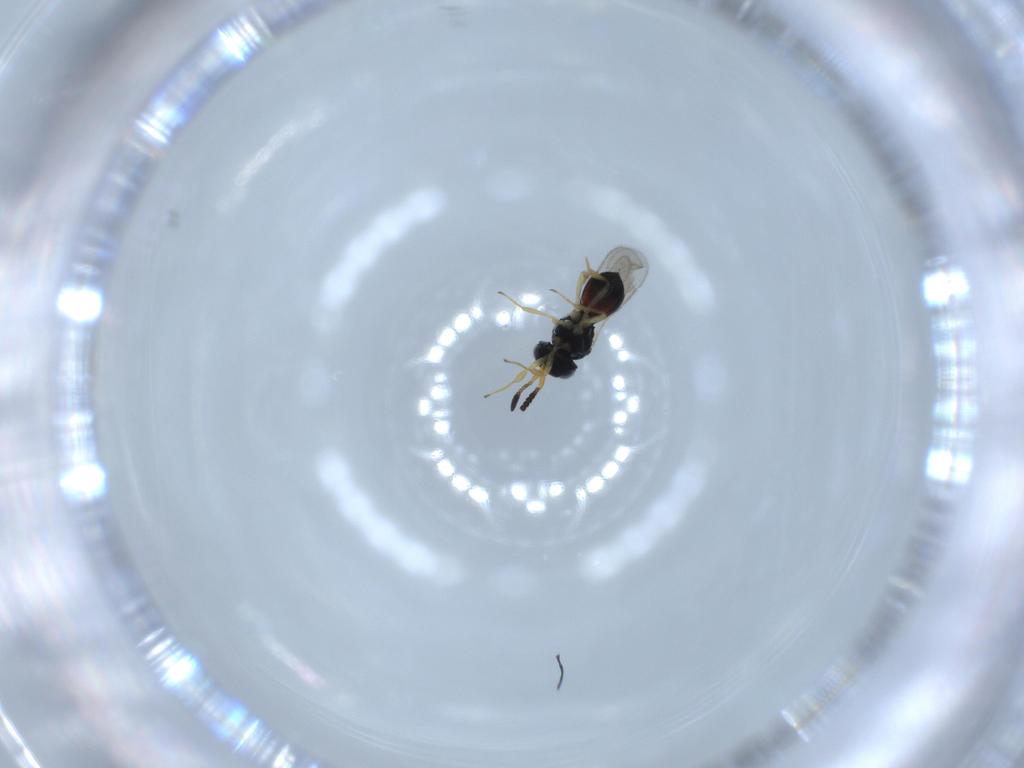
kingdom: Animalia
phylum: Arthropoda
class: Insecta
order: Hymenoptera
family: Scelionidae
